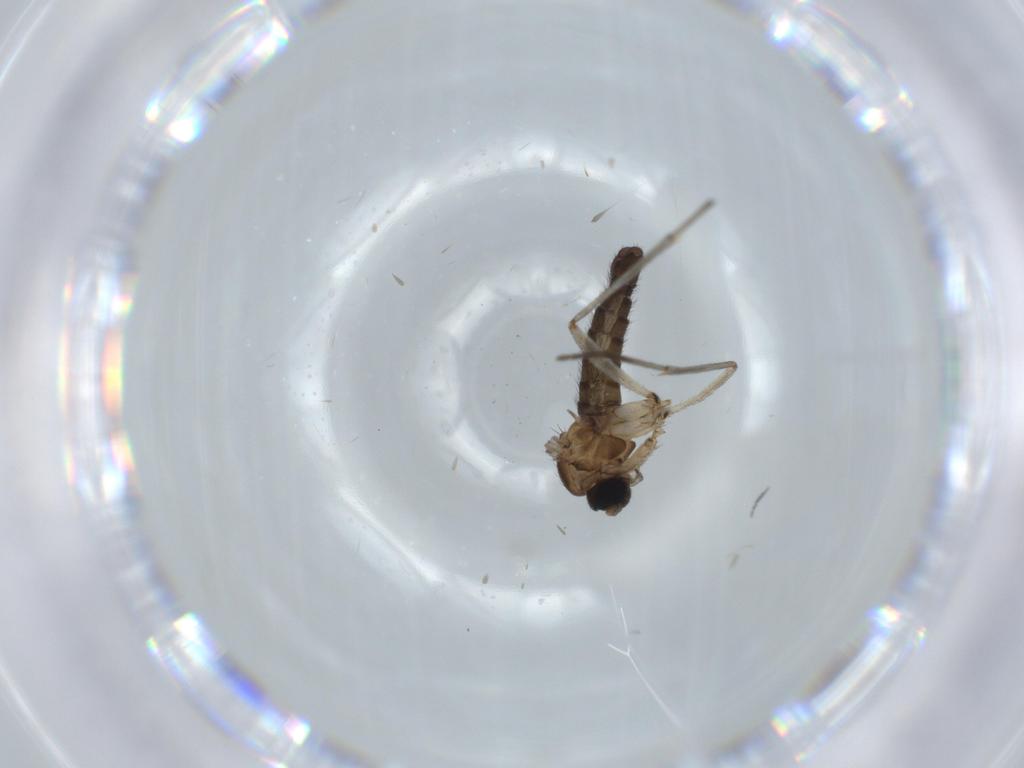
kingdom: Animalia
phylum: Arthropoda
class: Insecta
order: Diptera
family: Sciaridae
